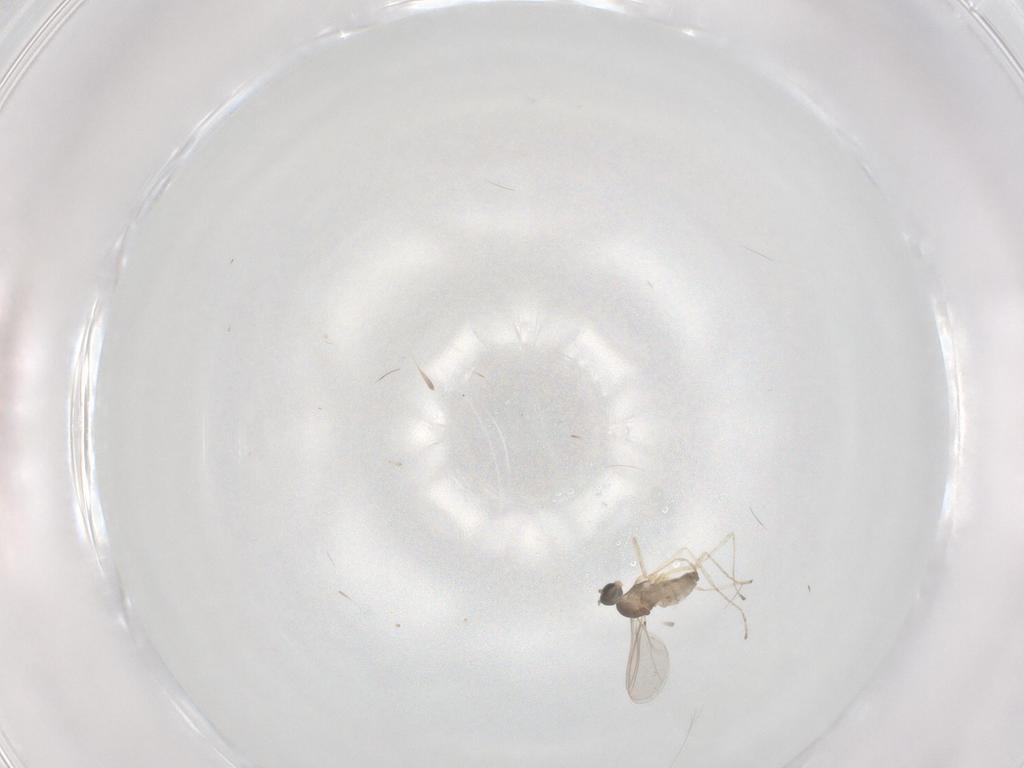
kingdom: Animalia
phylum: Arthropoda
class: Insecta
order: Diptera
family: Cecidomyiidae
